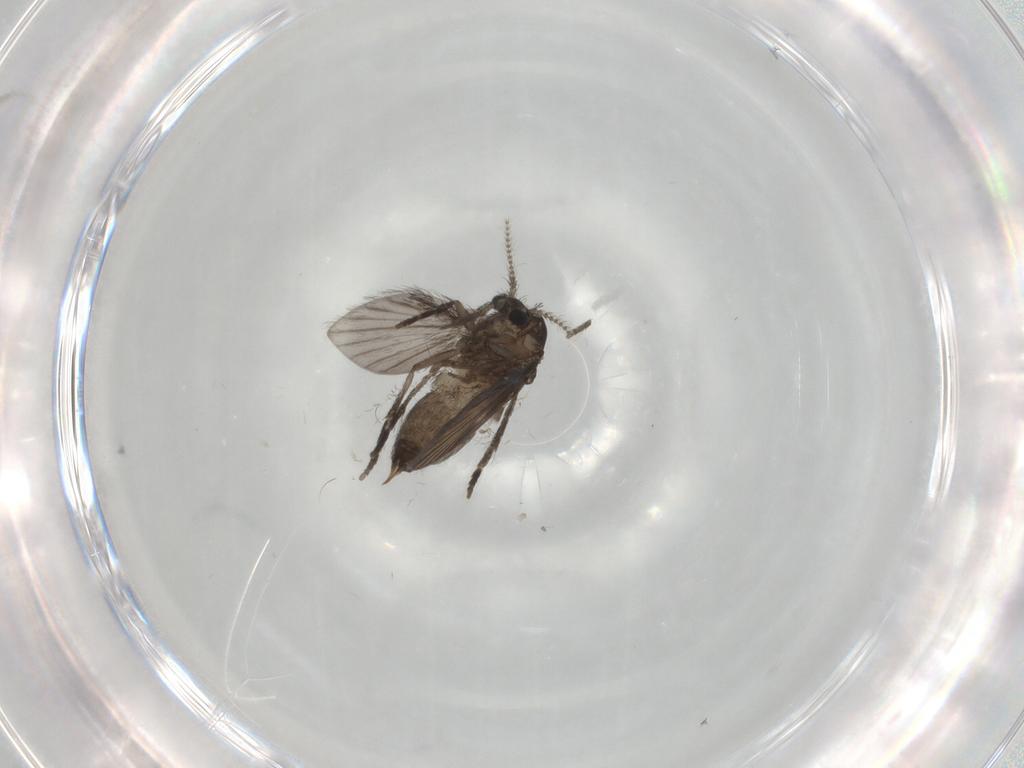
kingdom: Animalia
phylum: Arthropoda
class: Insecta
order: Diptera
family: Psychodidae
